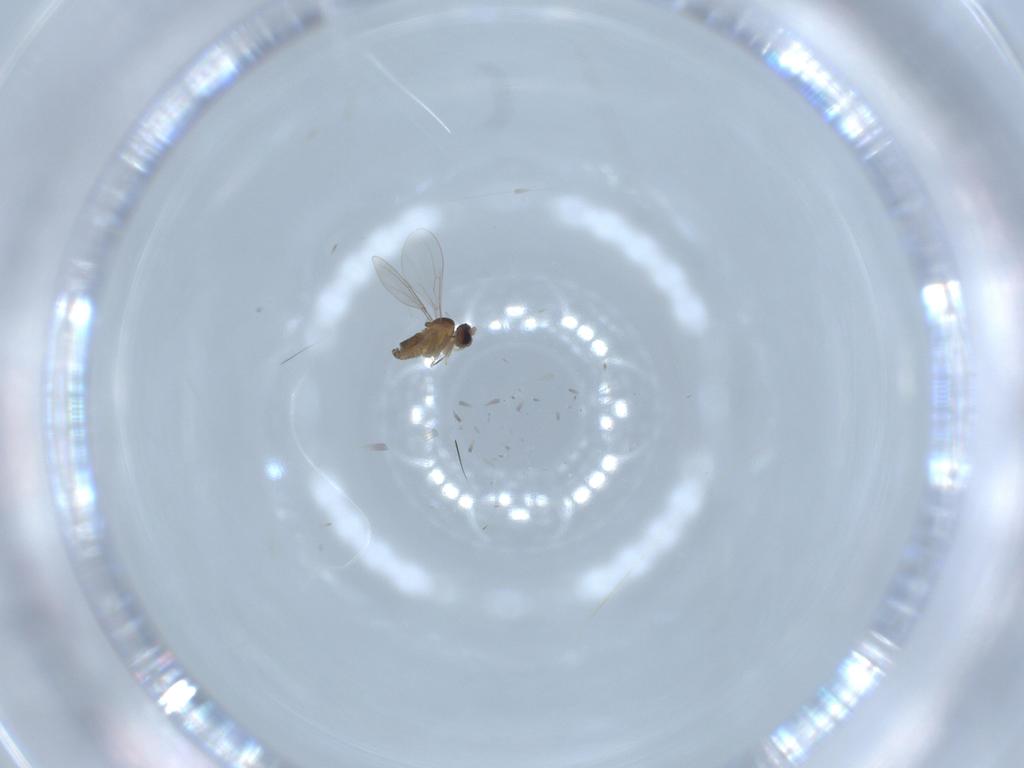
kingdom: Animalia
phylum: Arthropoda
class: Insecta
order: Diptera
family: Cecidomyiidae
